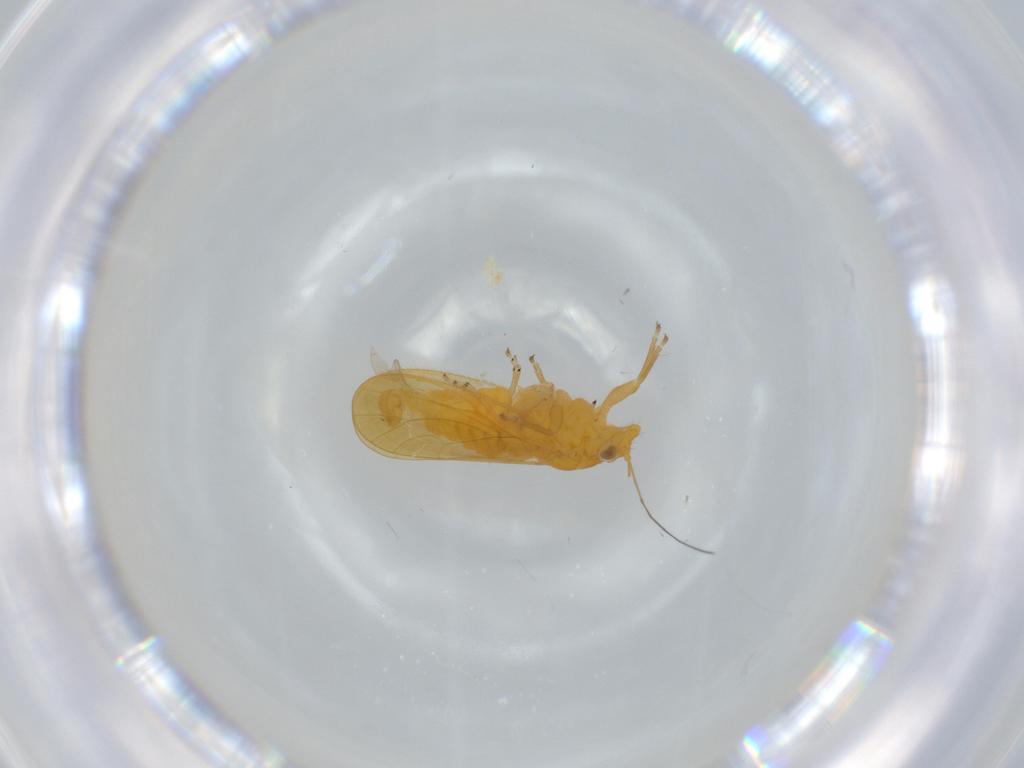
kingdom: Animalia
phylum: Arthropoda
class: Insecta
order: Hemiptera
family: Psyllidae
